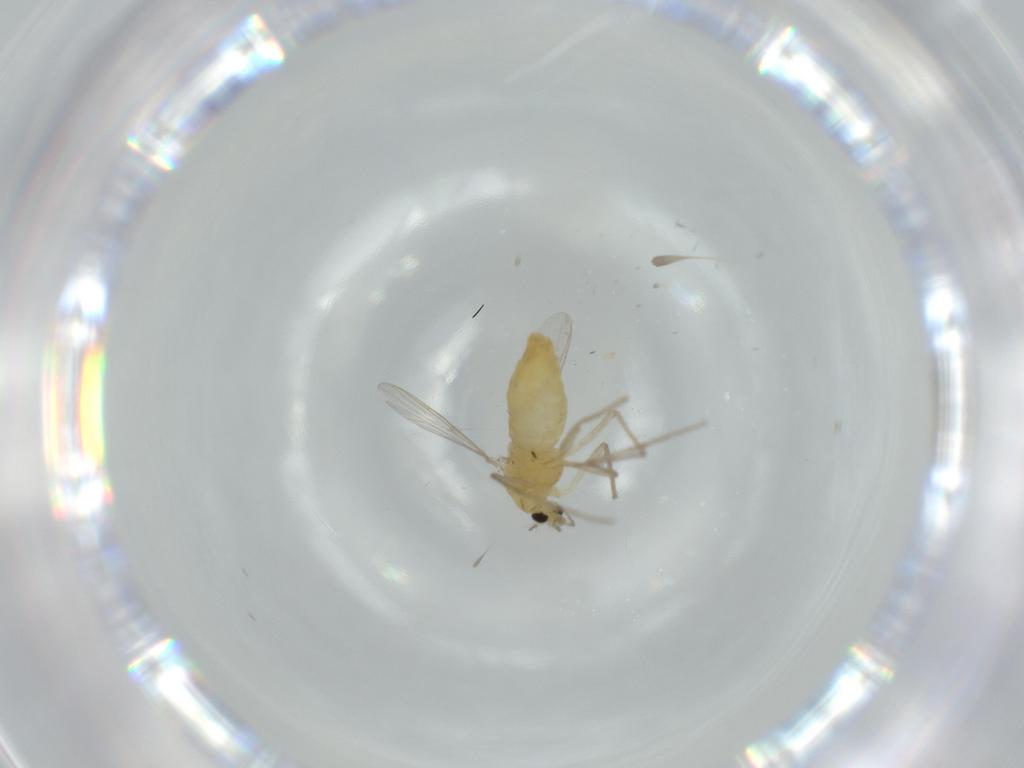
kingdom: Animalia
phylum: Arthropoda
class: Insecta
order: Diptera
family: Chironomidae
